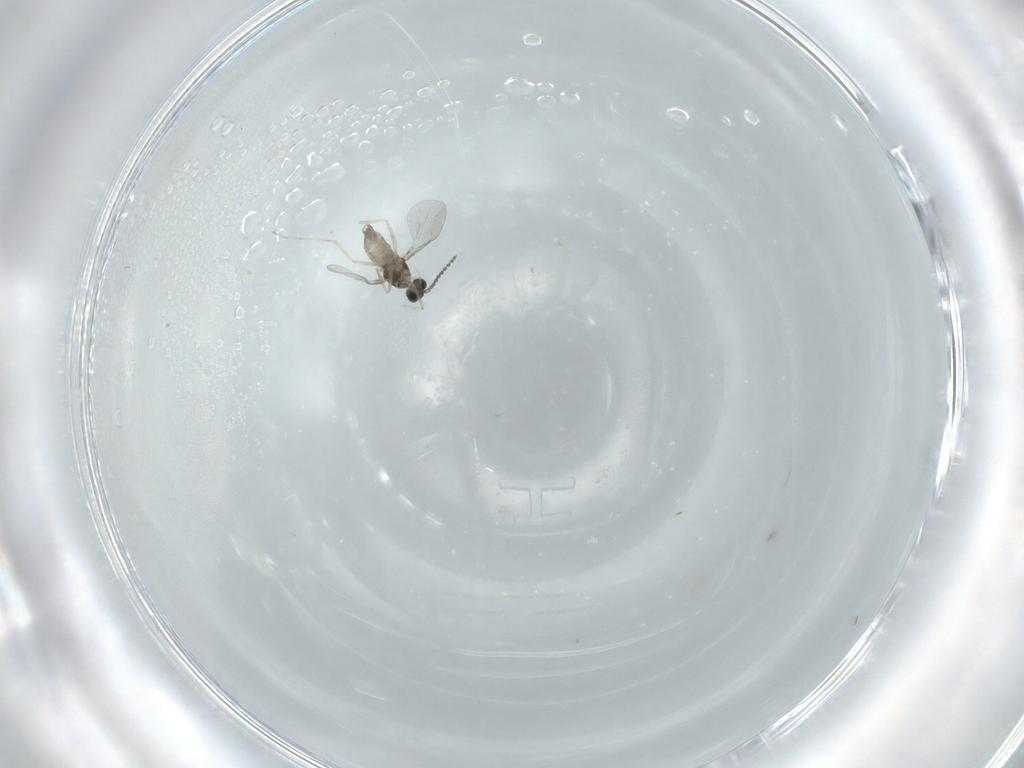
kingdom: Animalia
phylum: Arthropoda
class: Insecta
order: Diptera
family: Cecidomyiidae
